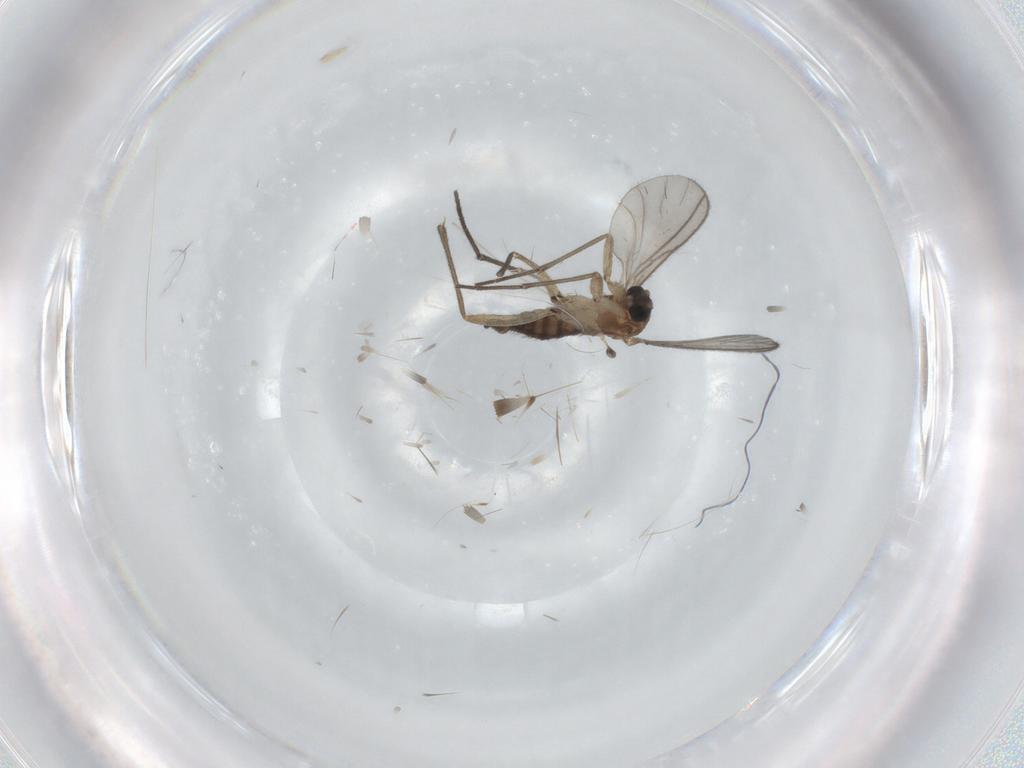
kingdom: Animalia
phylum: Arthropoda
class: Insecta
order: Diptera
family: Sciaridae
